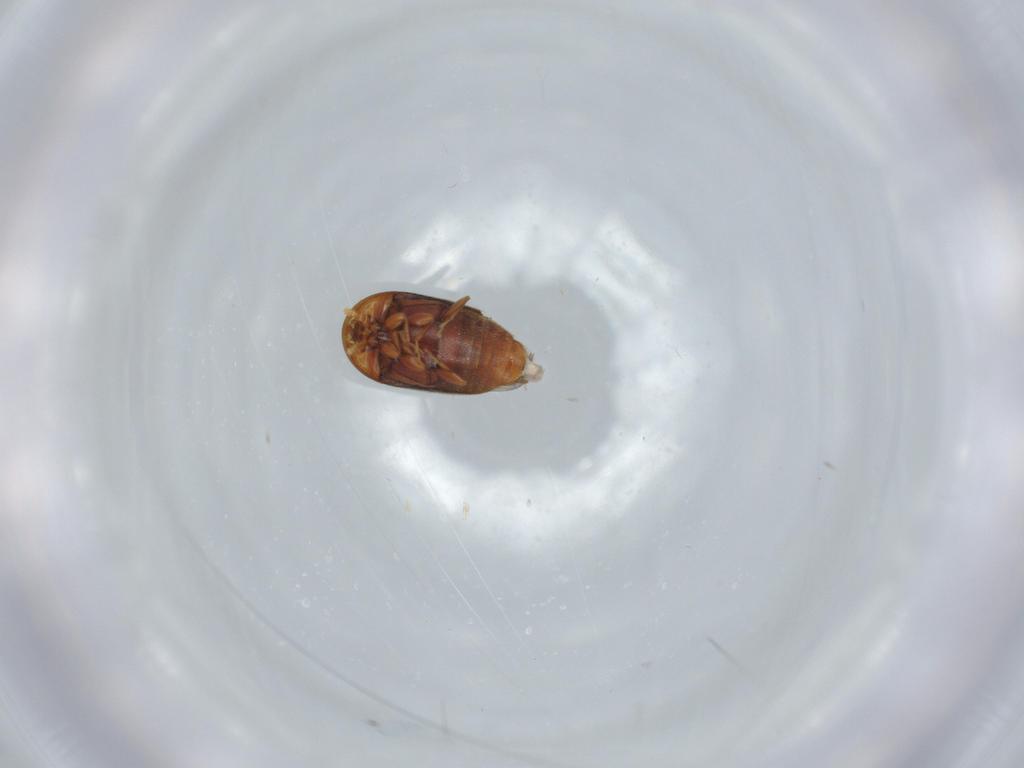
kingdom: Animalia
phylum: Arthropoda
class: Insecta
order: Coleoptera
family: Corylophidae
